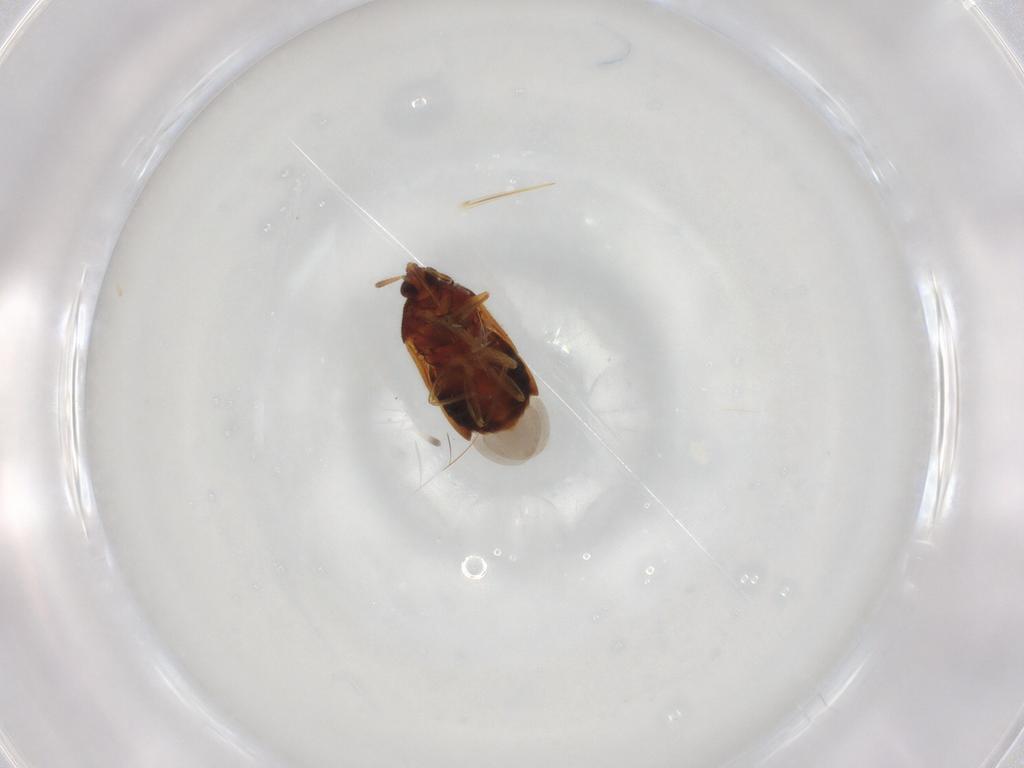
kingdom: Animalia
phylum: Arthropoda
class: Insecta
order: Hemiptera
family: Anthocoridae
